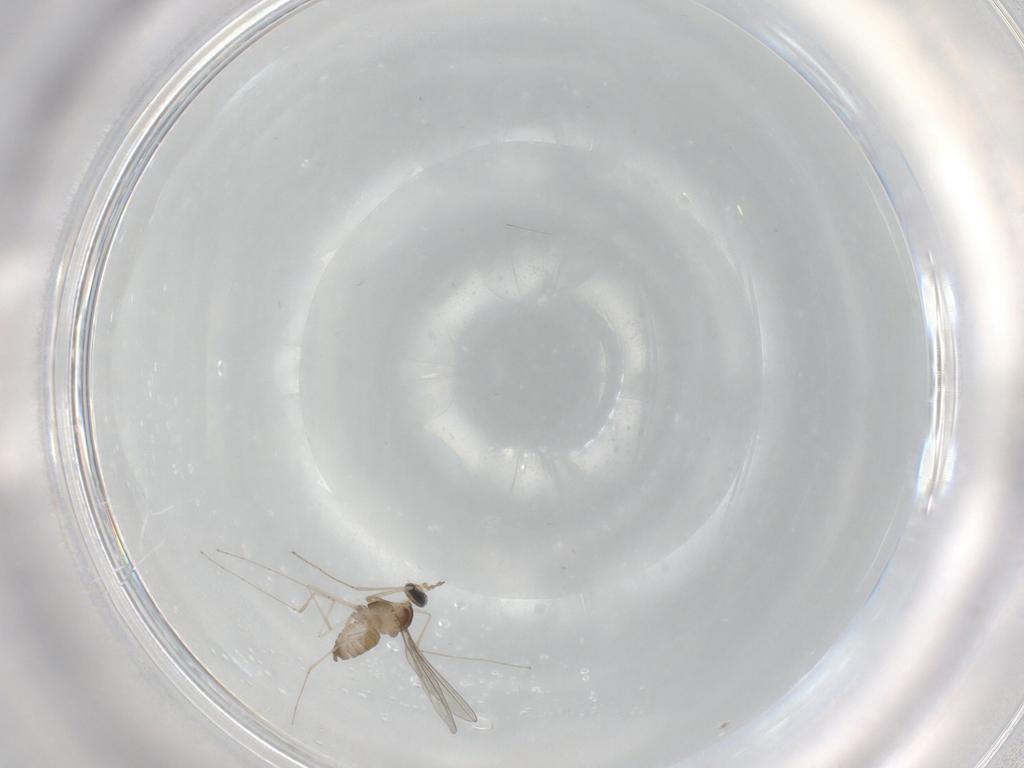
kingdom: Animalia
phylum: Arthropoda
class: Insecta
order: Diptera
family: Cecidomyiidae
